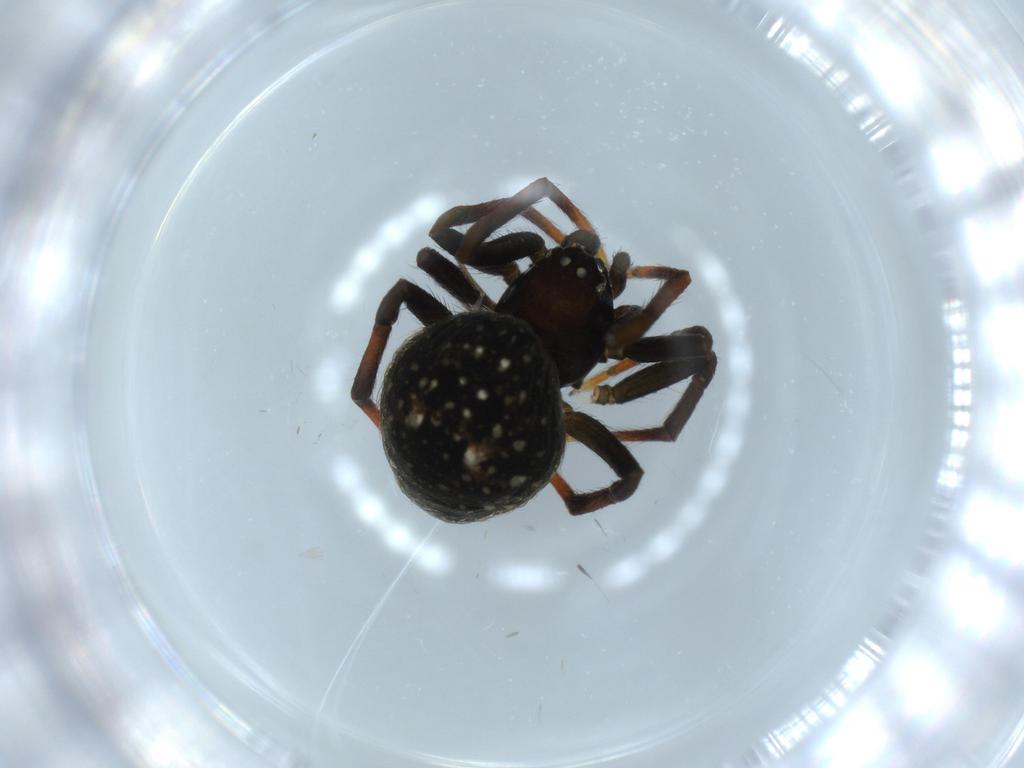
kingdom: Animalia
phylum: Arthropoda
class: Arachnida
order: Araneae
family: Theridiidae
